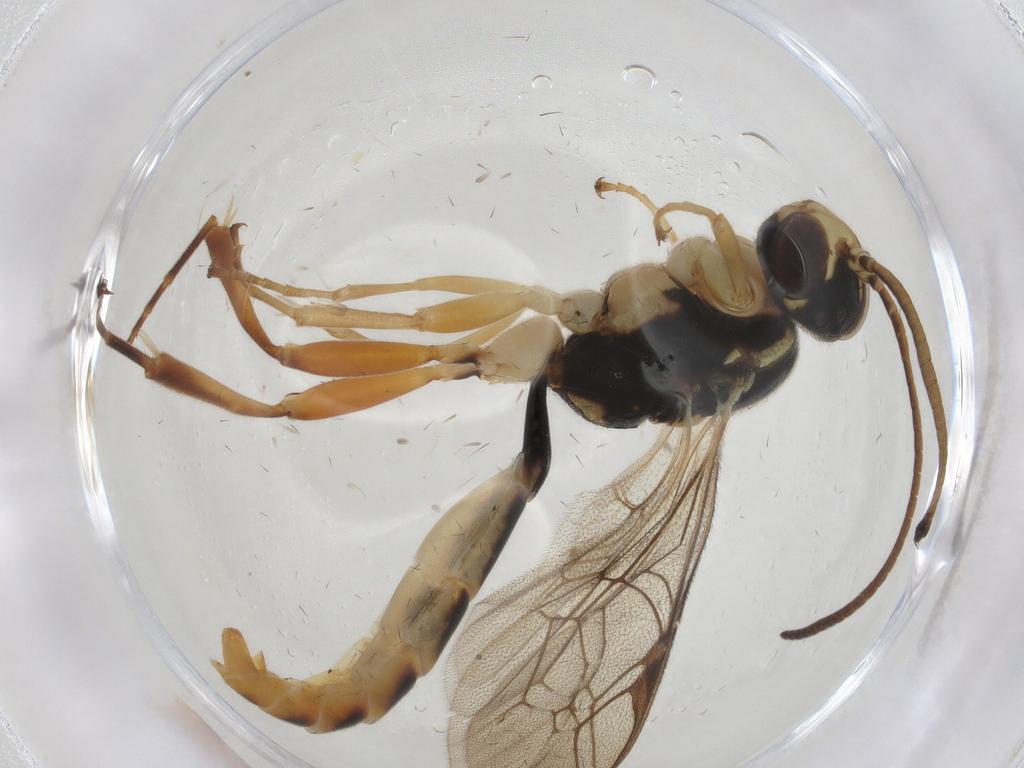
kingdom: Animalia
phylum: Arthropoda
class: Insecta
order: Hymenoptera
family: Ichneumonidae
